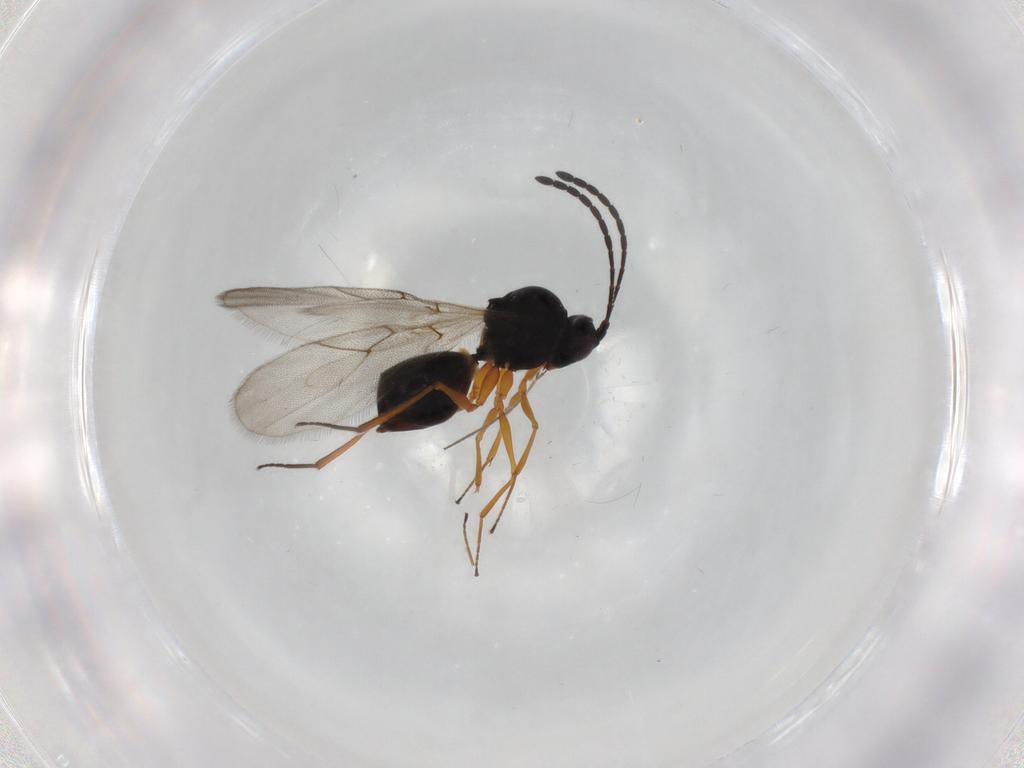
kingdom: Animalia
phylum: Arthropoda
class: Insecta
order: Hymenoptera
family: Figitidae
